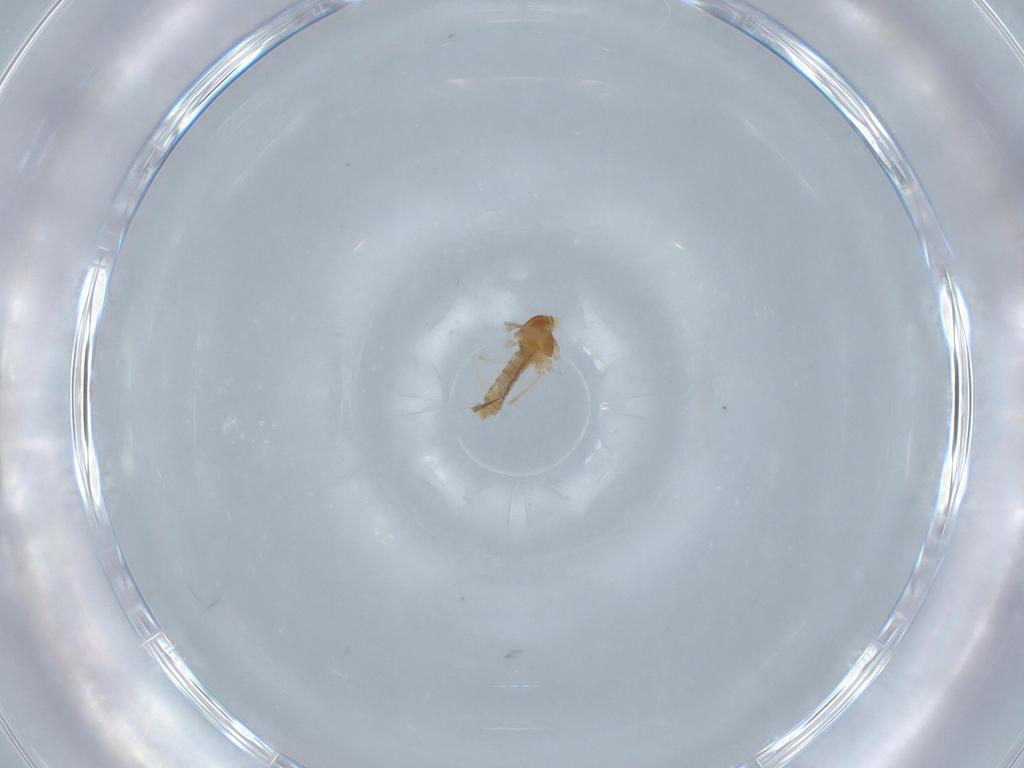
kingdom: Animalia
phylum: Arthropoda
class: Insecta
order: Diptera
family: Cecidomyiidae
